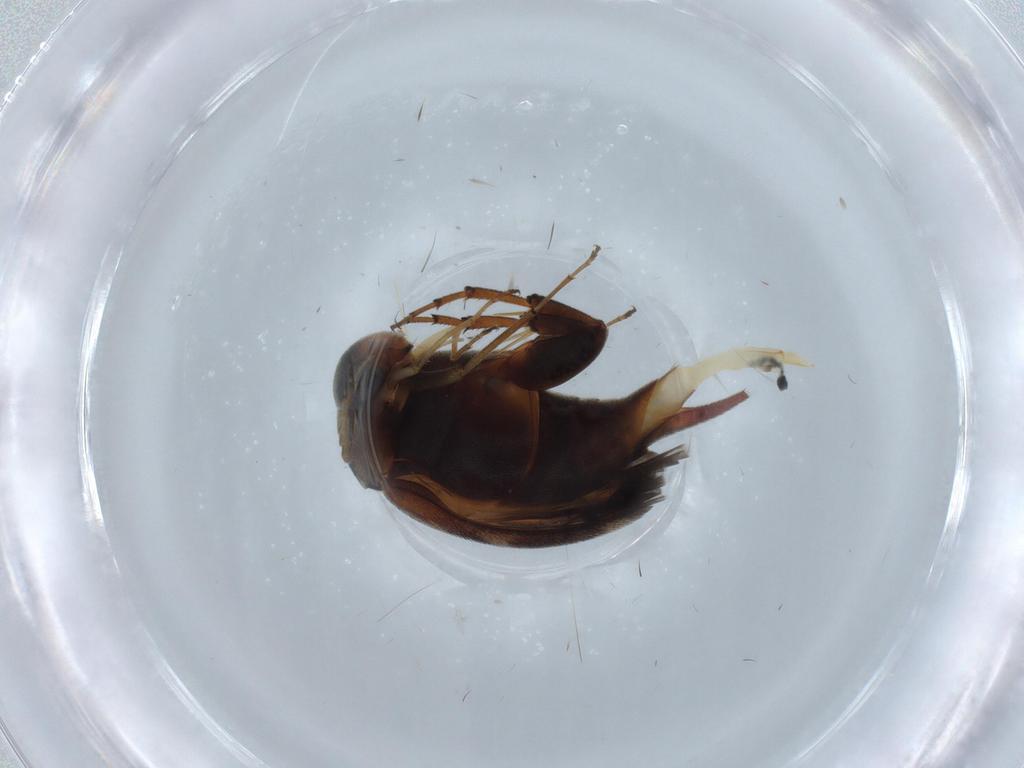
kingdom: Animalia
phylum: Arthropoda
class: Insecta
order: Coleoptera
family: Mordellidae
